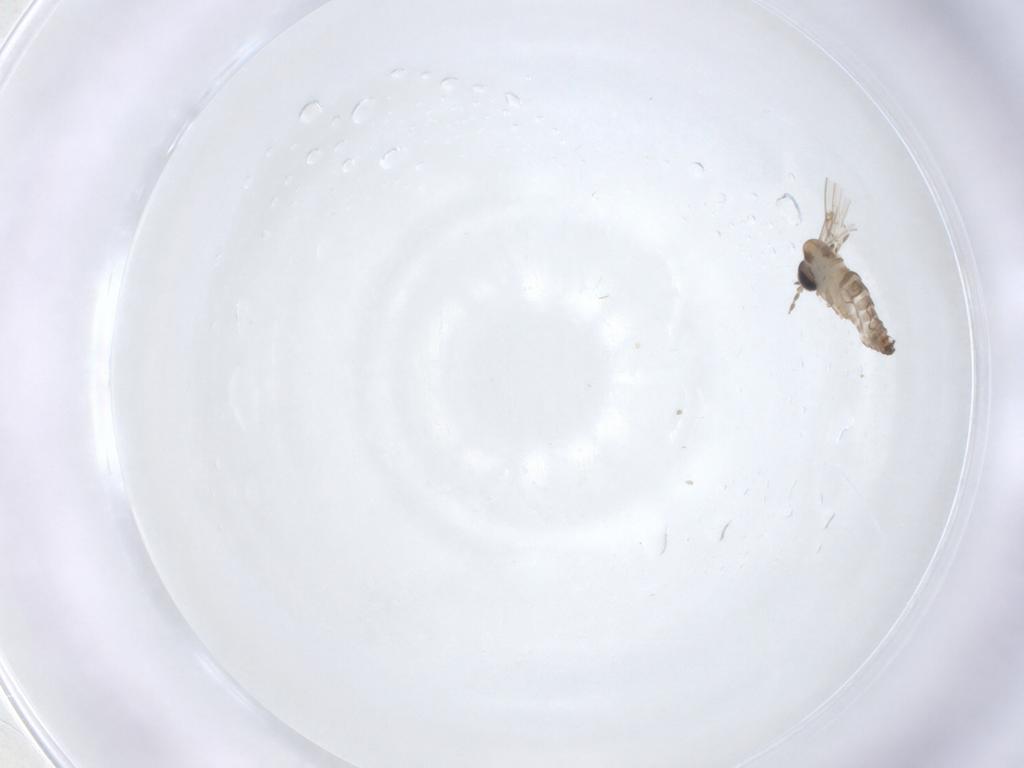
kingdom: Animalia
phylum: Arthropoda
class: Insecta
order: Diptera
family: Psychodidae
